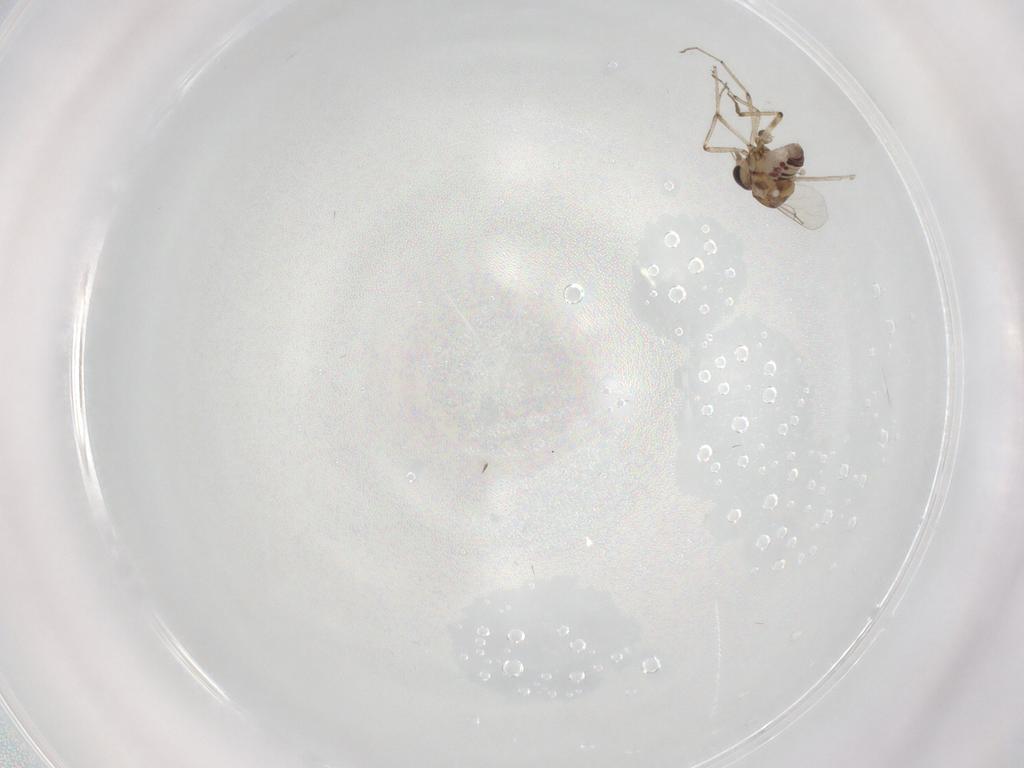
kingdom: Animalia
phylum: Arthropoda
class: Insecta
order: Diptera
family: Ceratopogonidae
